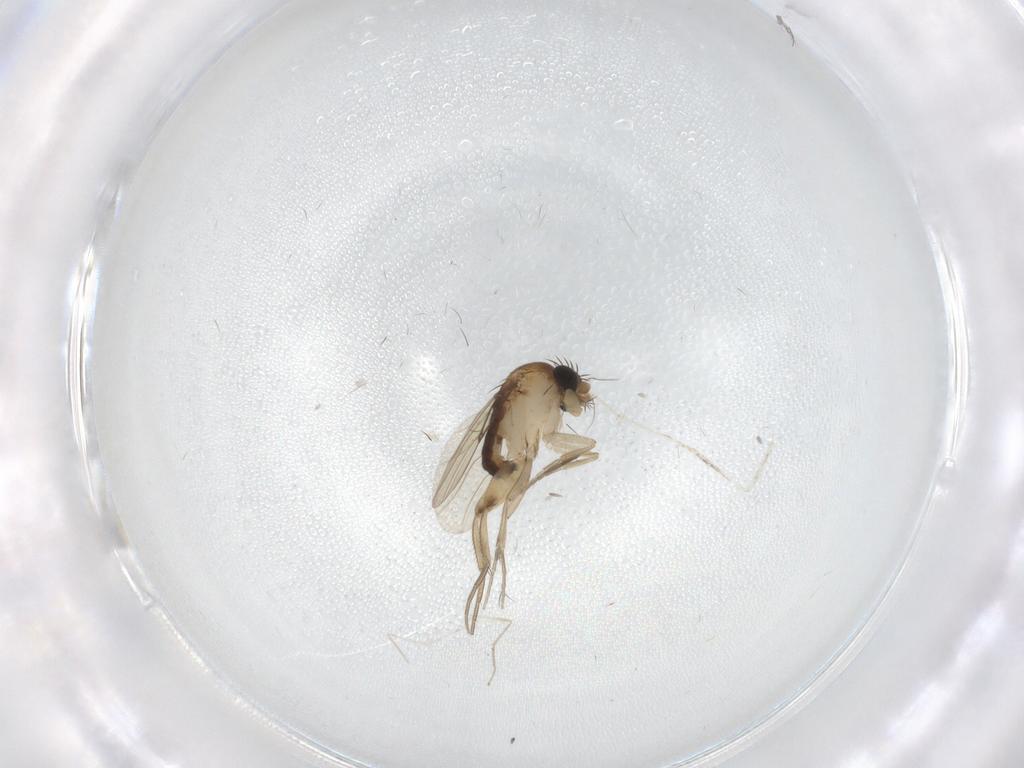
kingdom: Animalia
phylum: Arthropoda
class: Insecta
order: Diptera
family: Phoridae
